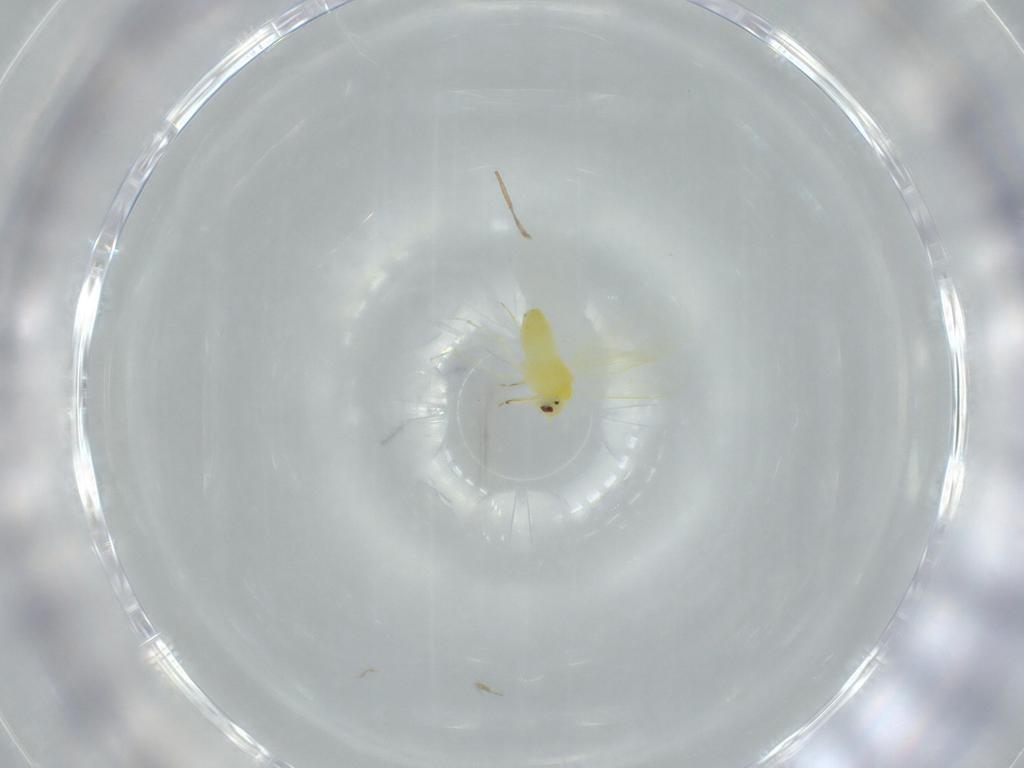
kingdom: Animalia
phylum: Arthropoda
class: Insecta
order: Hemiptera
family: Aleyrodidae
